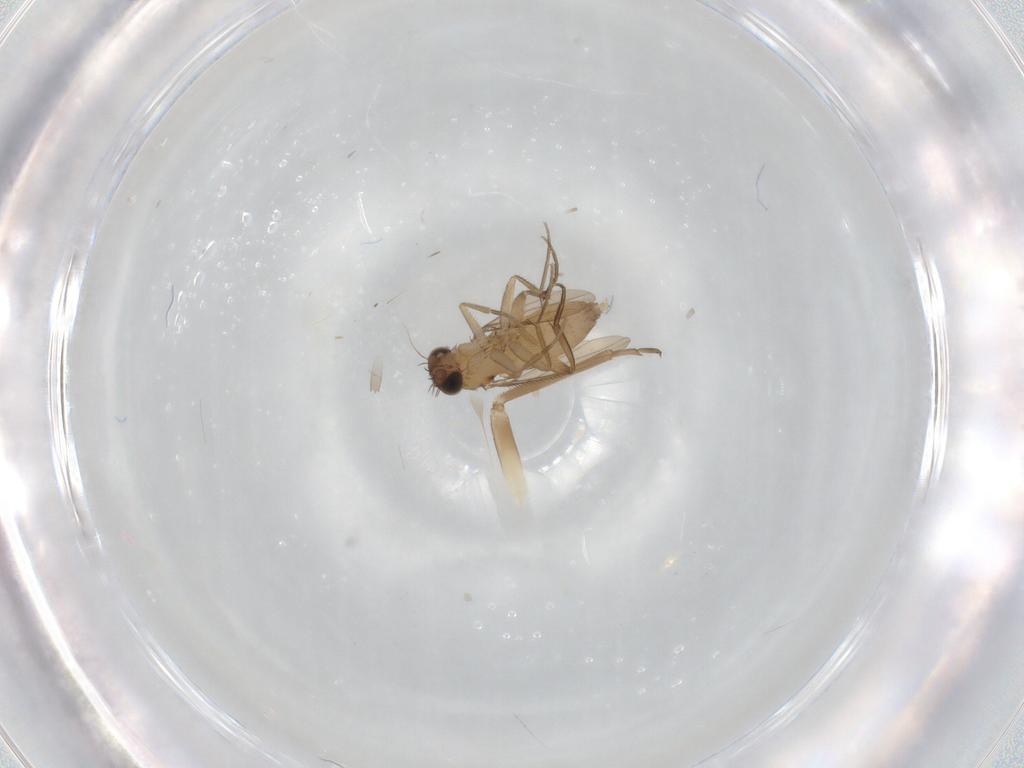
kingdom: Animalia
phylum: Arthropoda
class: Insecta
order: Diptera
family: Phoridae
